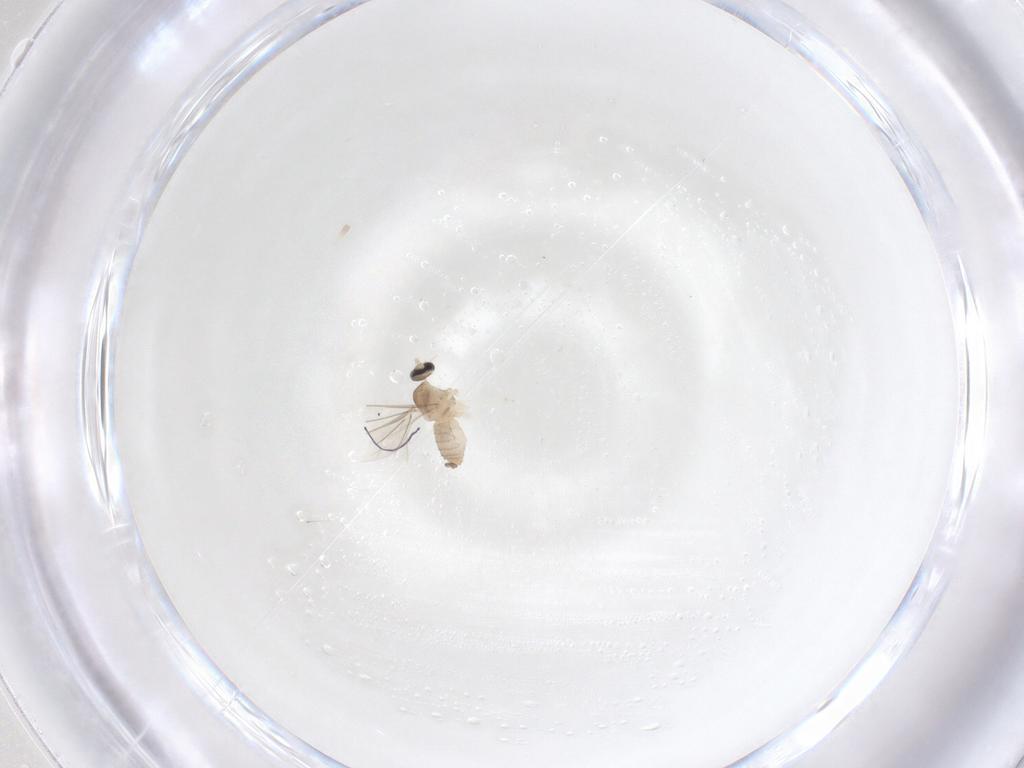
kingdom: Animalia
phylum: Arthropoda
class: Insecta
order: Diptera
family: Cecidomyiidae
